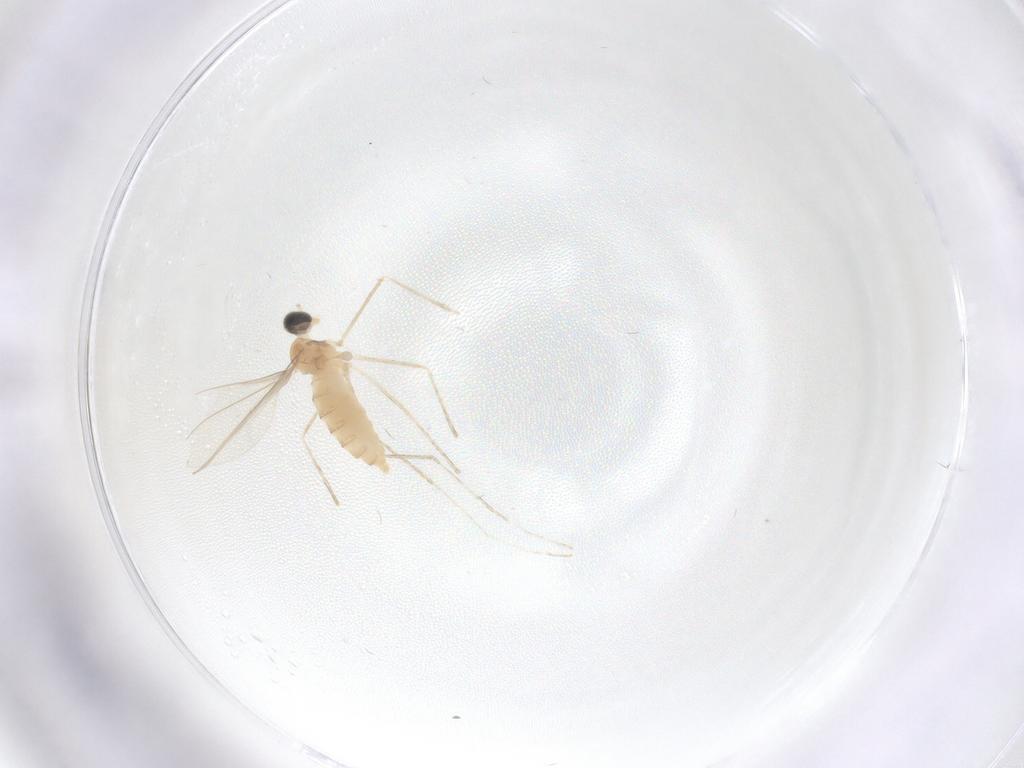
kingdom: Animalia
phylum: Arthropoda
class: Insecta
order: Diptera
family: Cecidomyiidae
